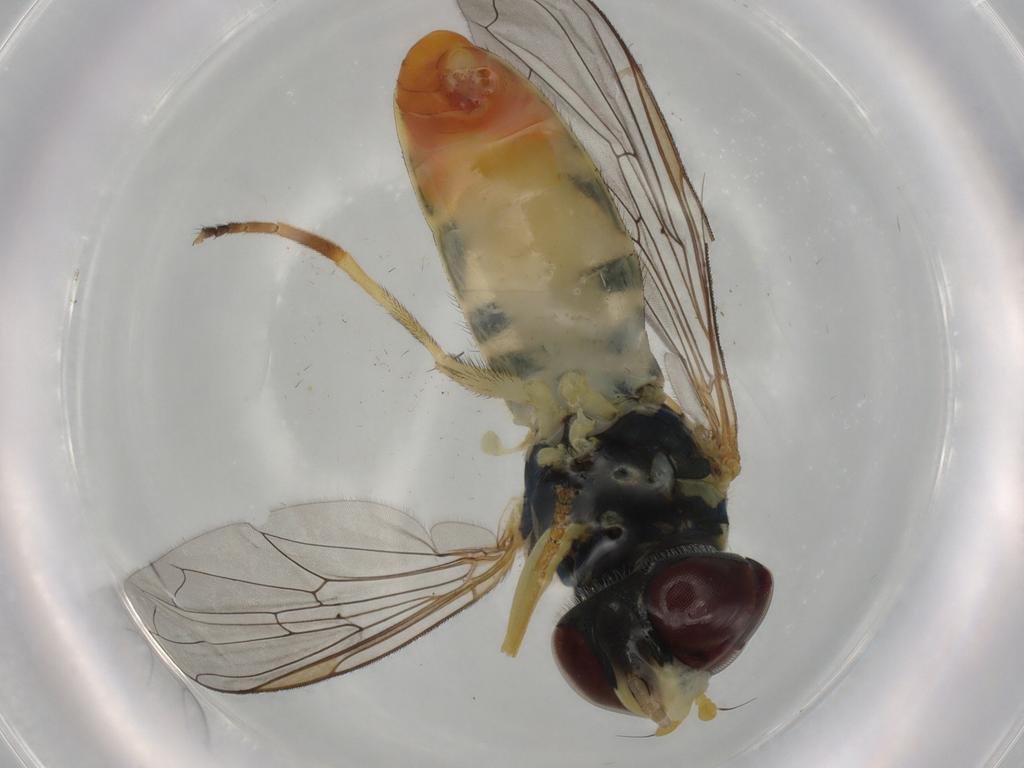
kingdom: Animalia
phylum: Arthropoda
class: Insecta
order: Diptera
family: Syrphidae
